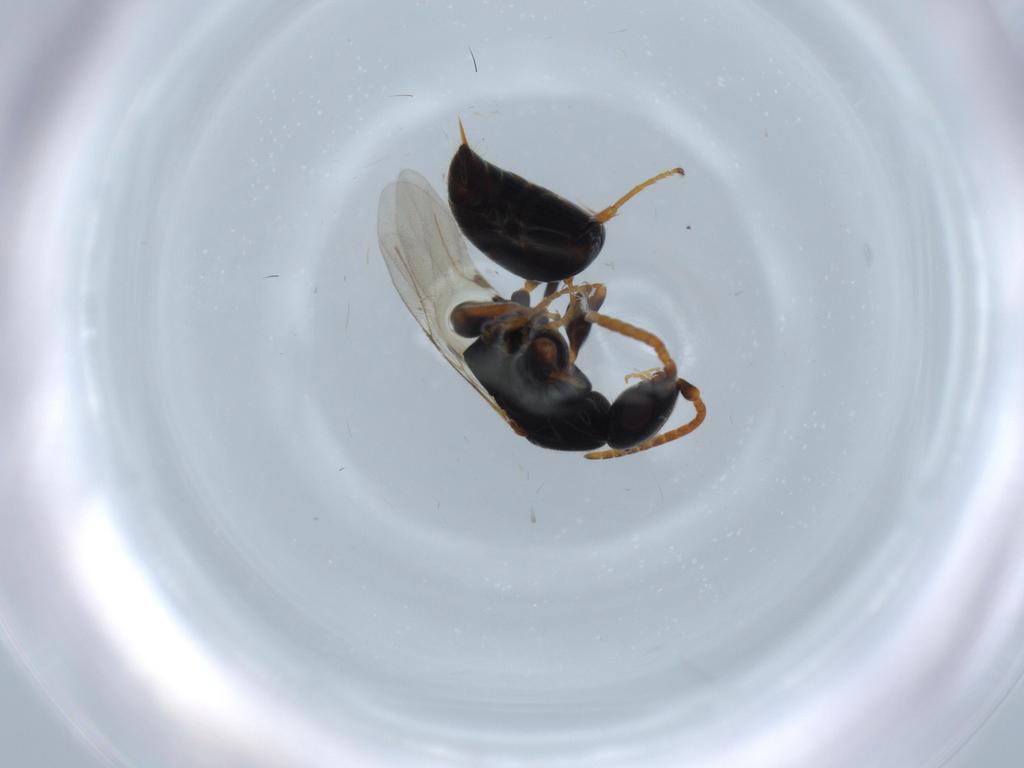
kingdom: Animalia
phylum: Arthropoda
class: Insecta
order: Hymenoptera
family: Bethylidae
